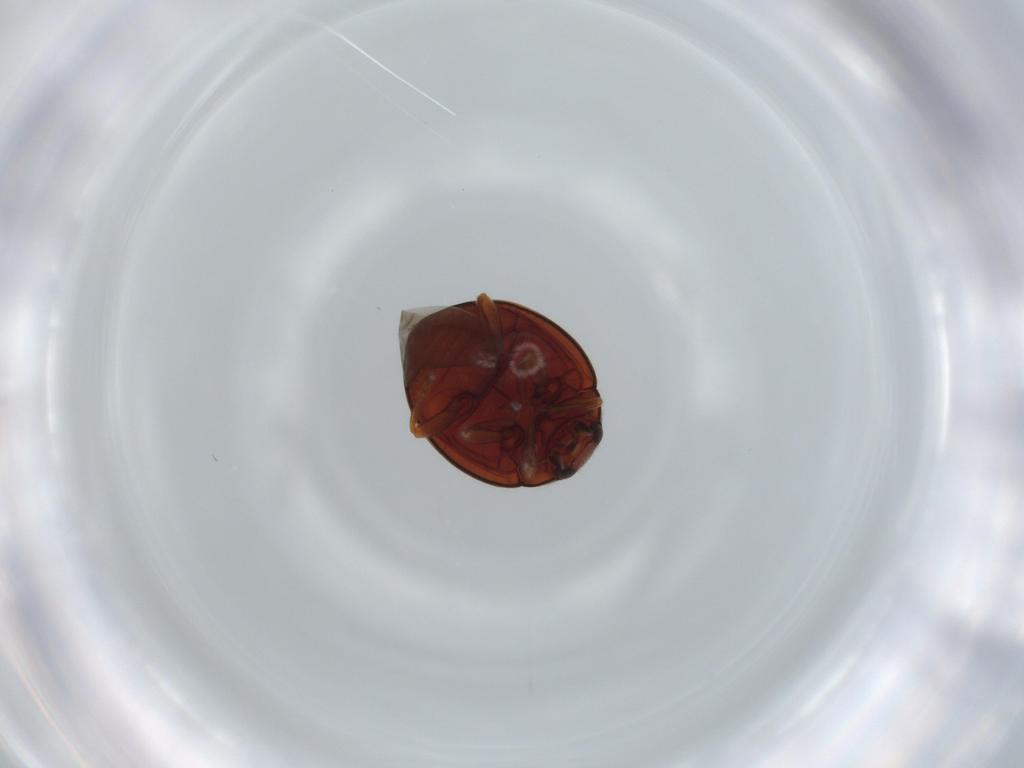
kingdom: Animalia
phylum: Arthropoda
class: Insecta
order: Coleoptera
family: Coccinellidae
